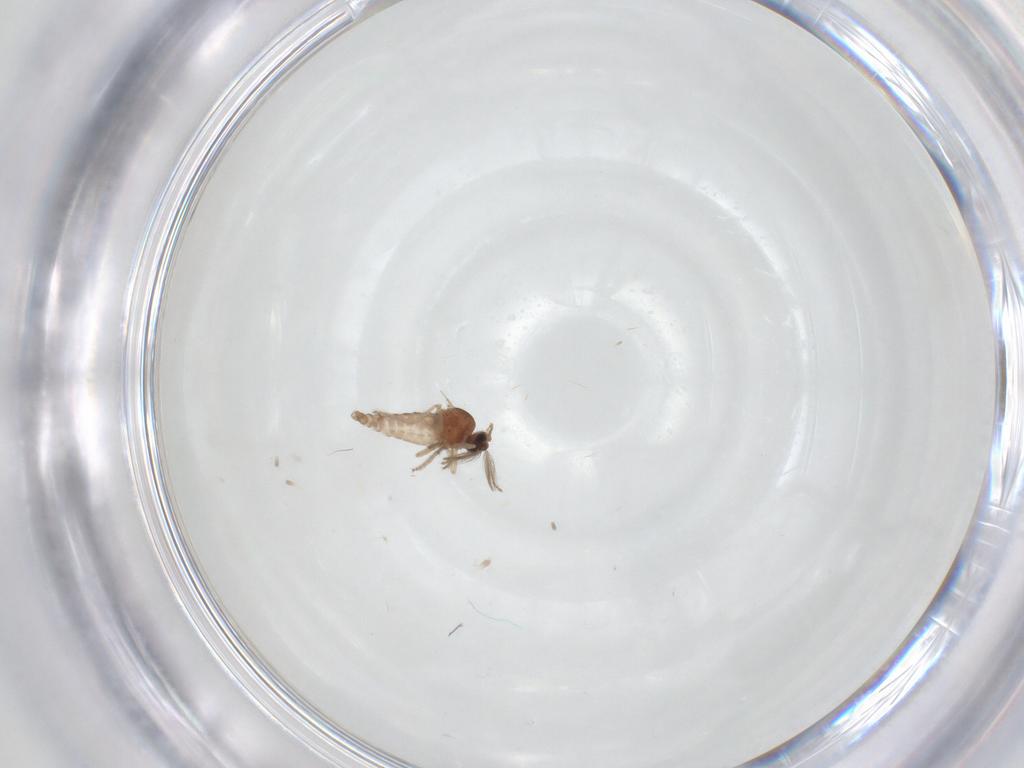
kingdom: Animalia
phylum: Arthropoda
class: Insecta
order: Diptera
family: Ceratopogonidae
